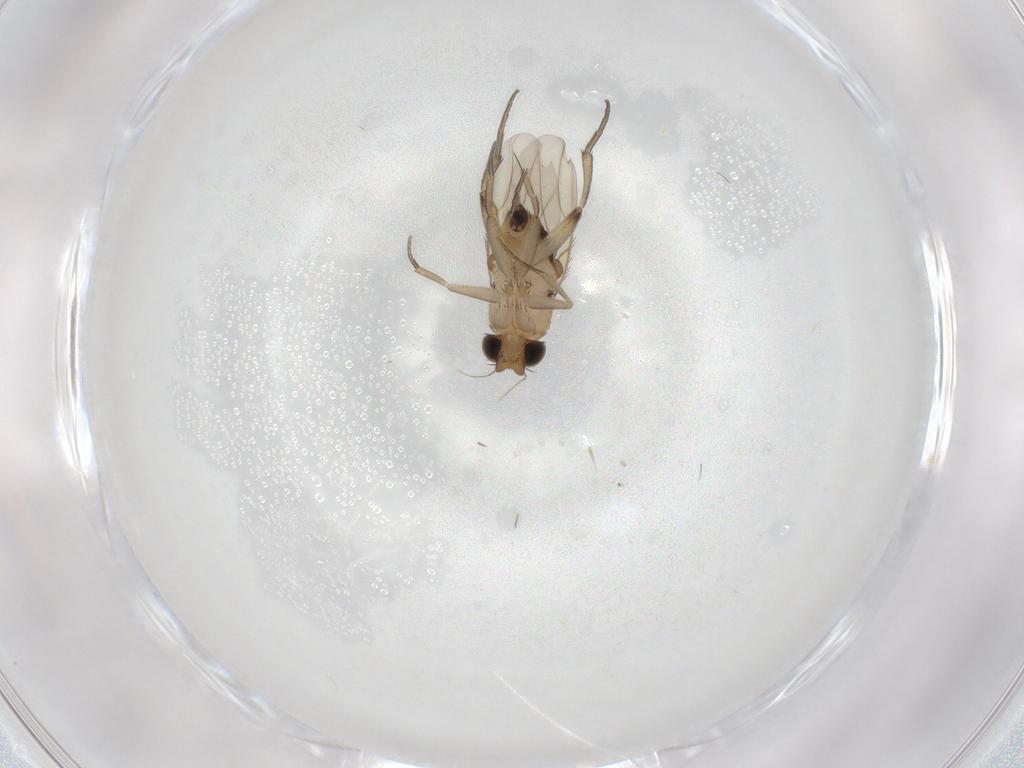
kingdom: Animalia
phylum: Arthropoda
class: Insecta
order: Diptera
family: Phoridae
